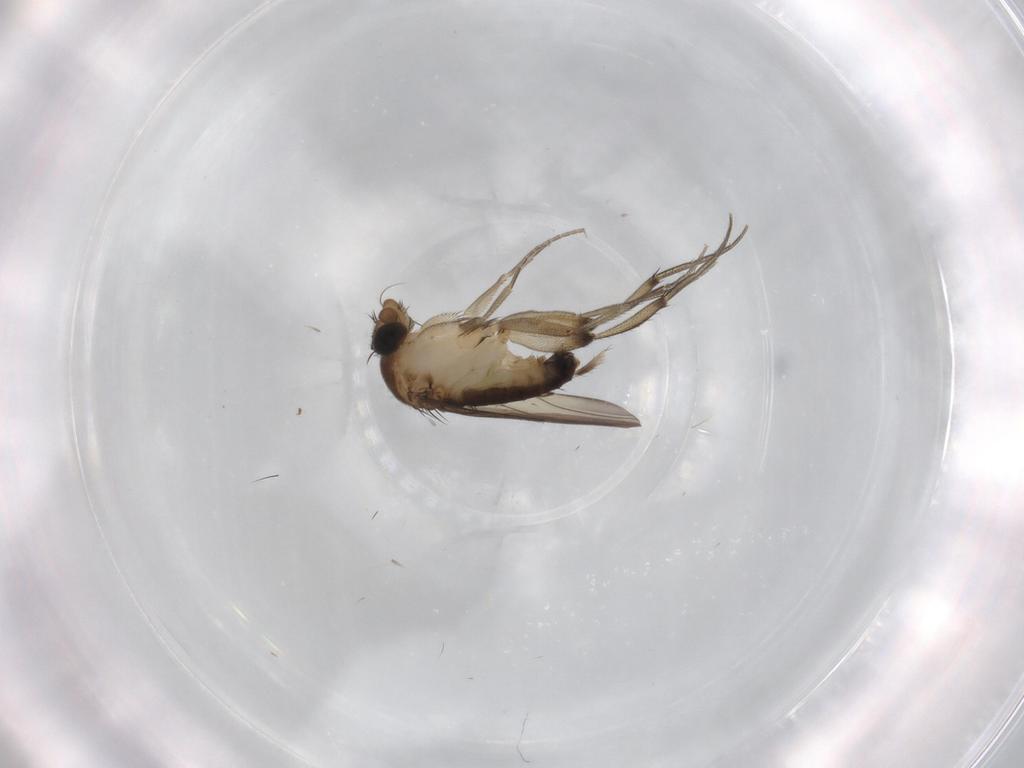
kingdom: Animalia
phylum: Arthropoda
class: Insecta
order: Diptera
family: Phoridae
